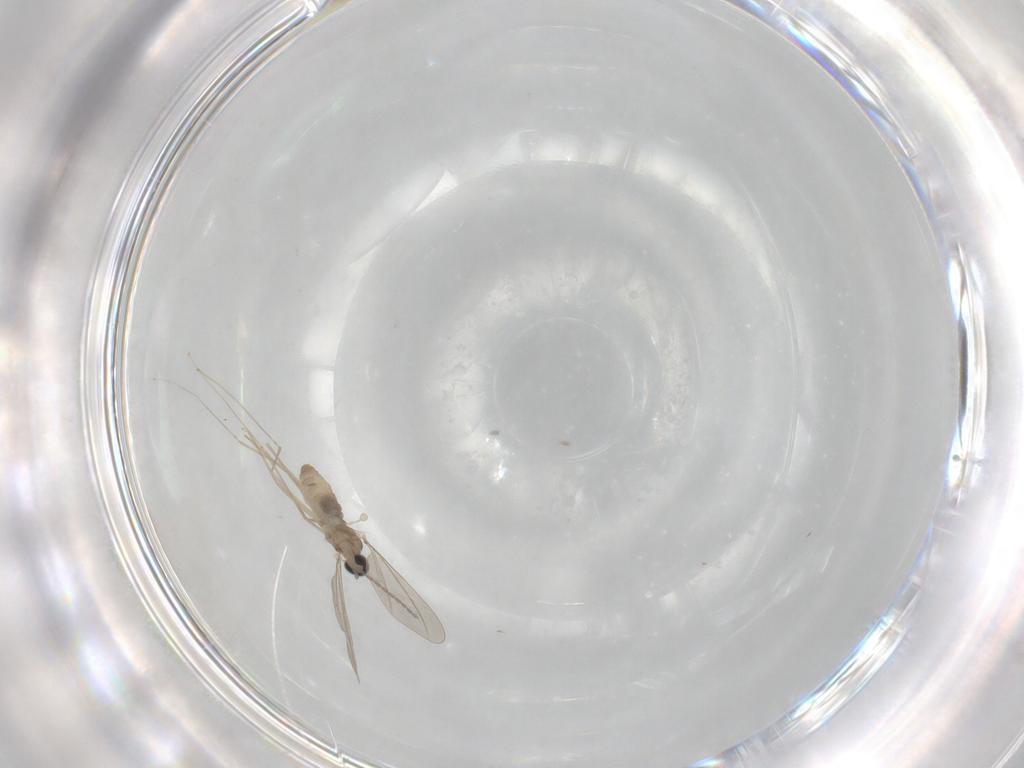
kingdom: Animalia
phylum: Arthropoda
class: Insecta
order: Diptera
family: Cecidomyiidae
